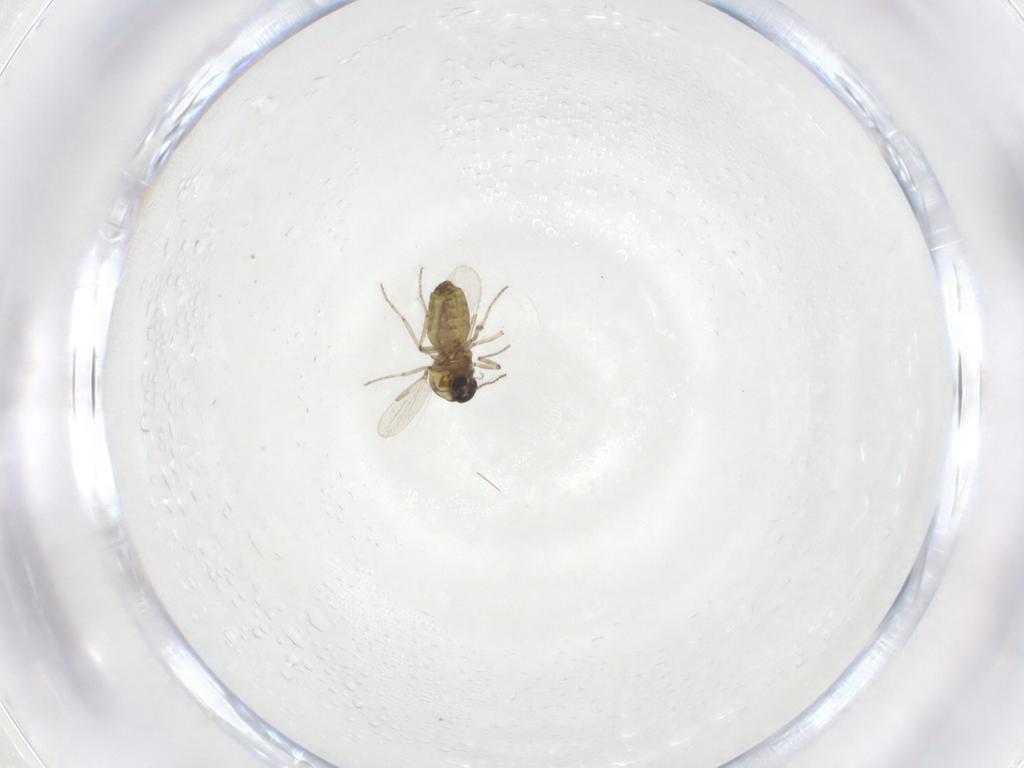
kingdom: Animalia
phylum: Arthropoda
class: Insecta
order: Diptera
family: Ceratopogonidae
